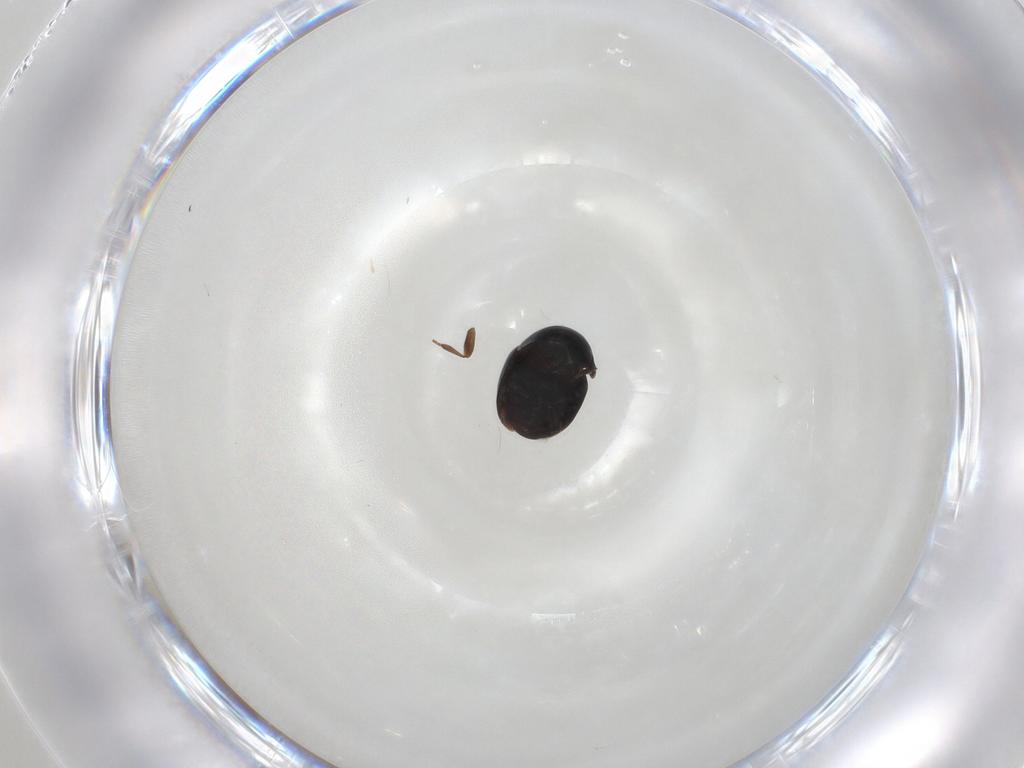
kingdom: Animalia
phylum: Arthropoda
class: Insecta
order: Coleoptera
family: Cybocephalidae
